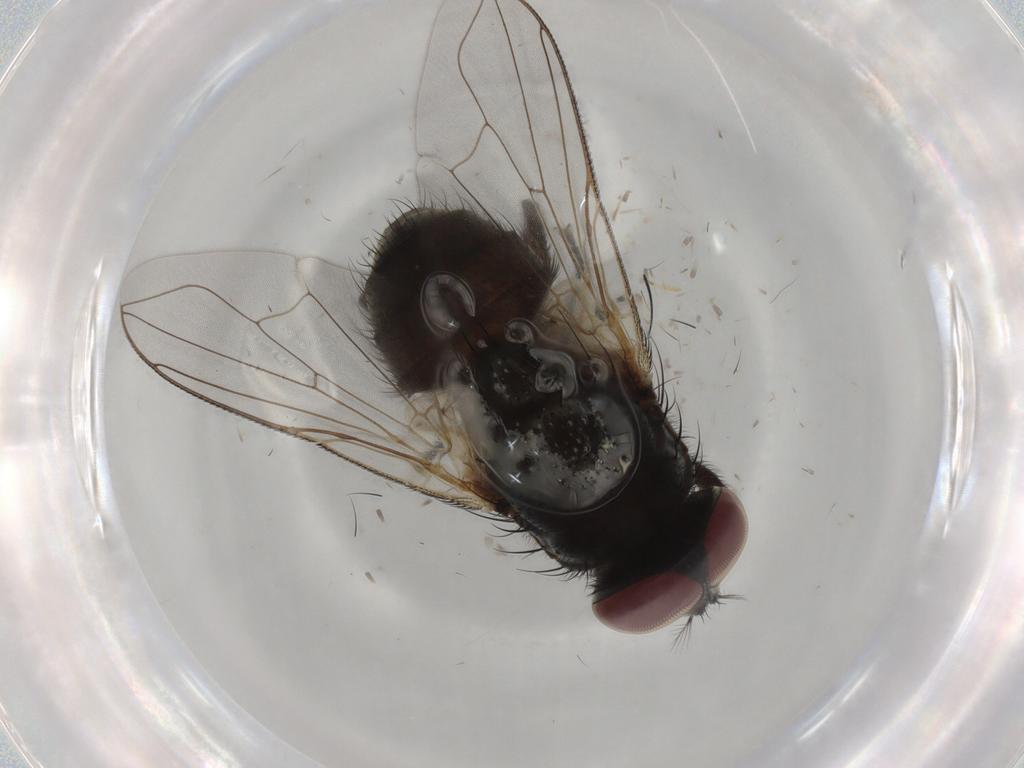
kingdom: Animalia
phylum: Arthropoda
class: Insecta
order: Diptera
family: Muscidae
